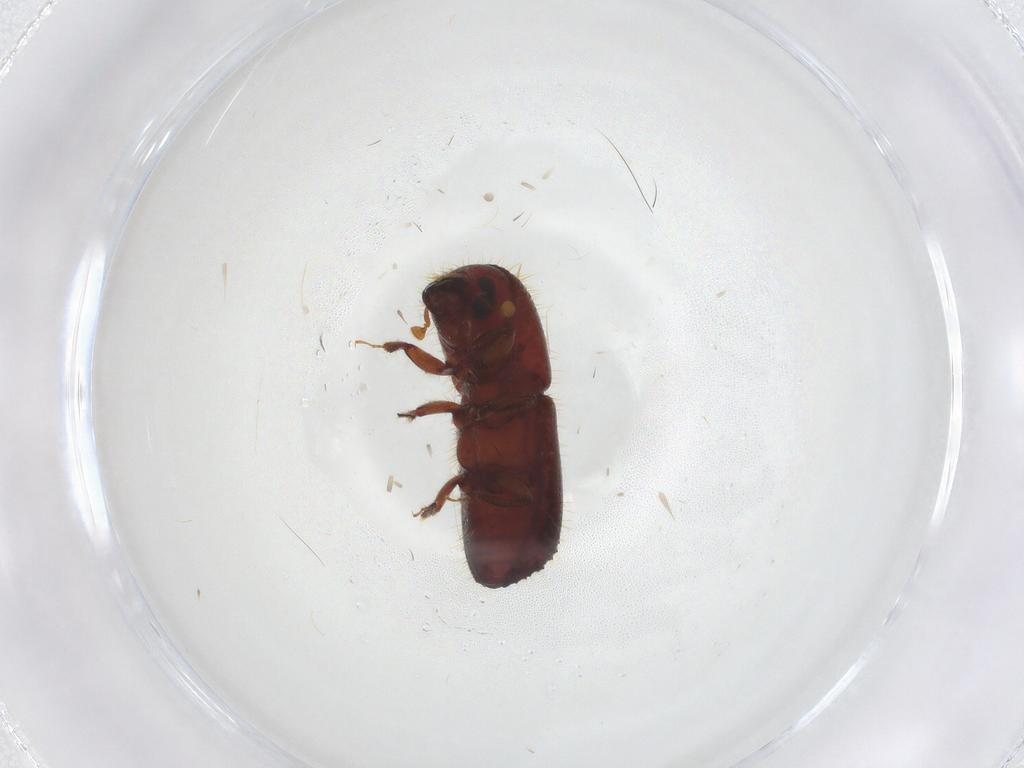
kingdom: Animalia
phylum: Arthropoda
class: Insecta
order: Coleoptera
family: Curculionidae
